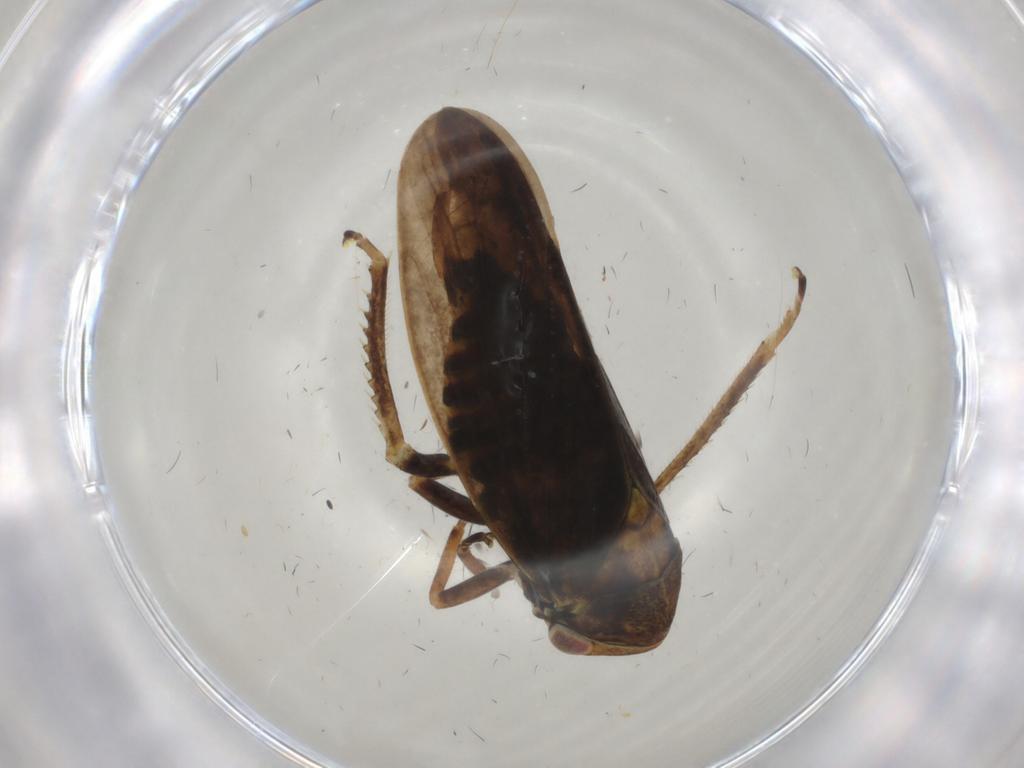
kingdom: Animalia
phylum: Arthropoda
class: Insecta
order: Hemiptera
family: Cicadellidae
